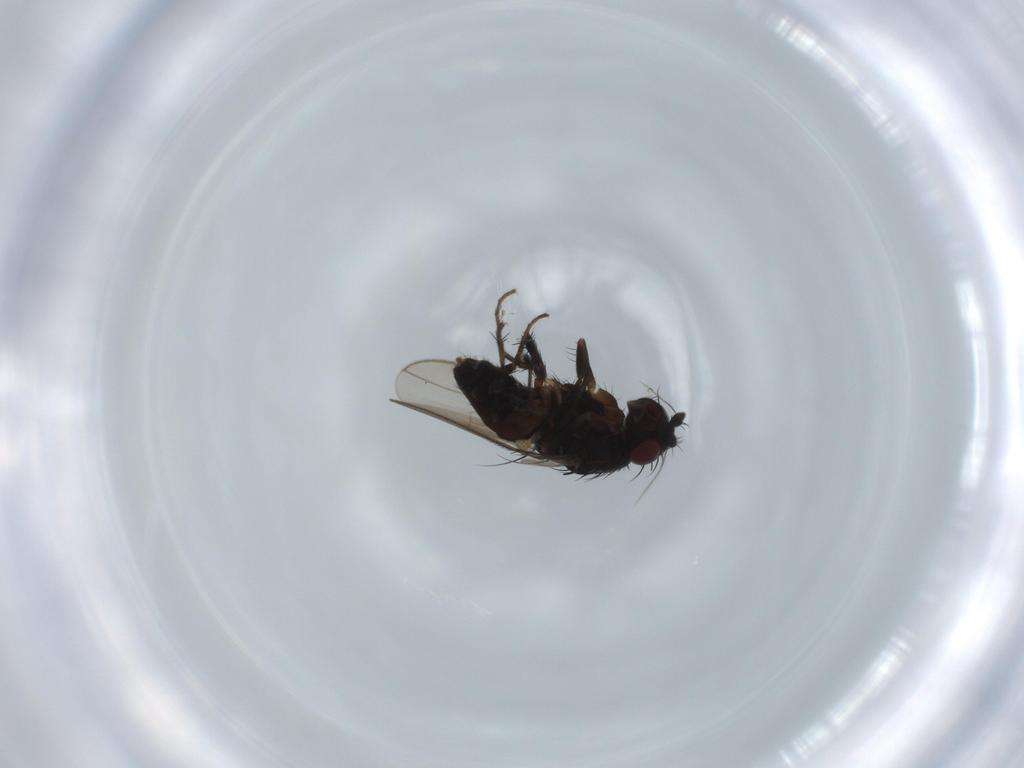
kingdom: Animalia
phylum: Arthropoda
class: Insecta
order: Diptera
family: Sphaeroceridae
